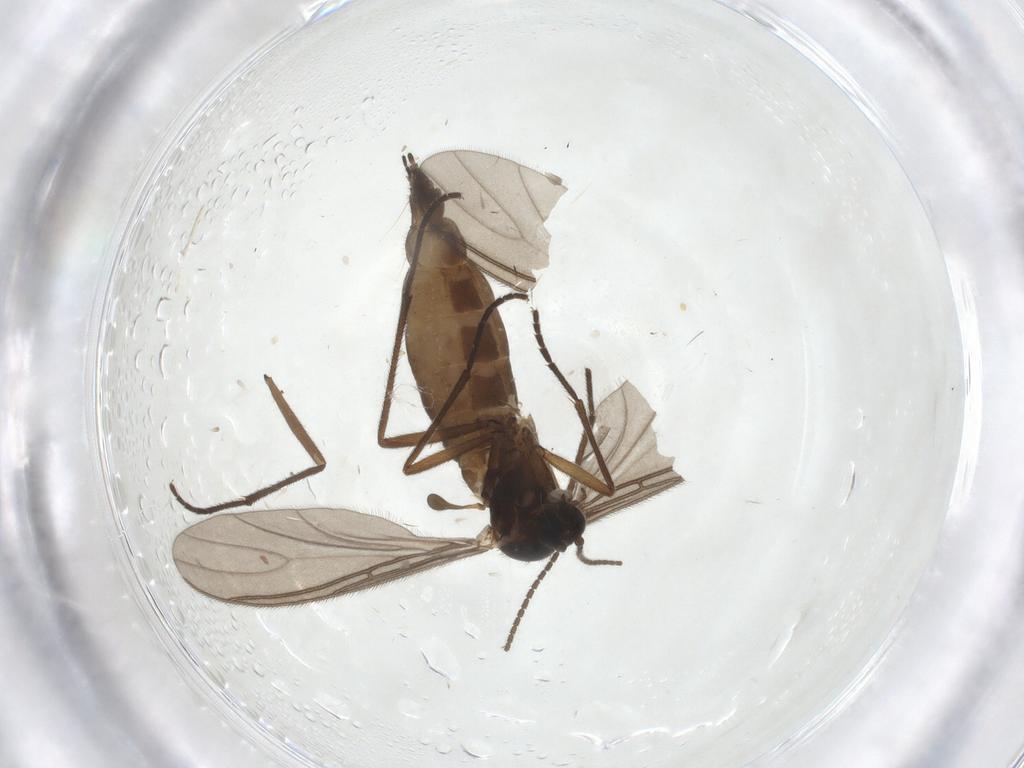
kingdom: Animalia
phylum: Arthropoda
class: Insecta
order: Diptera
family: Sciaridae
